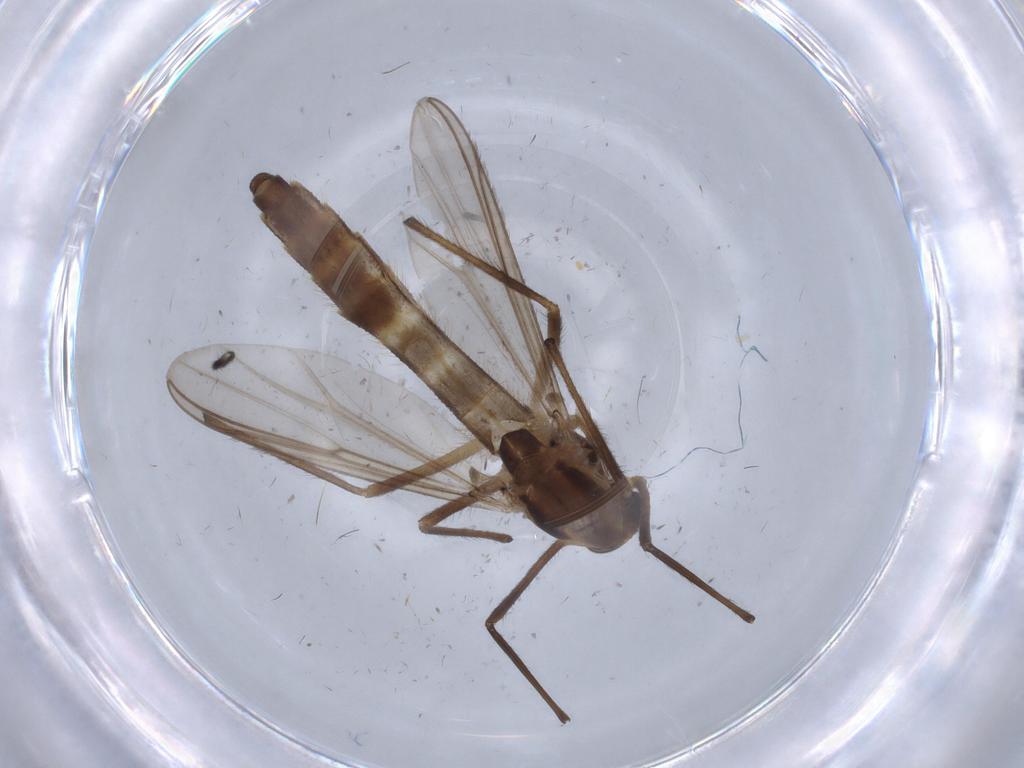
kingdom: Animalia
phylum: Arthropoda
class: Insecta
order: Diptera
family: Chironomidae
